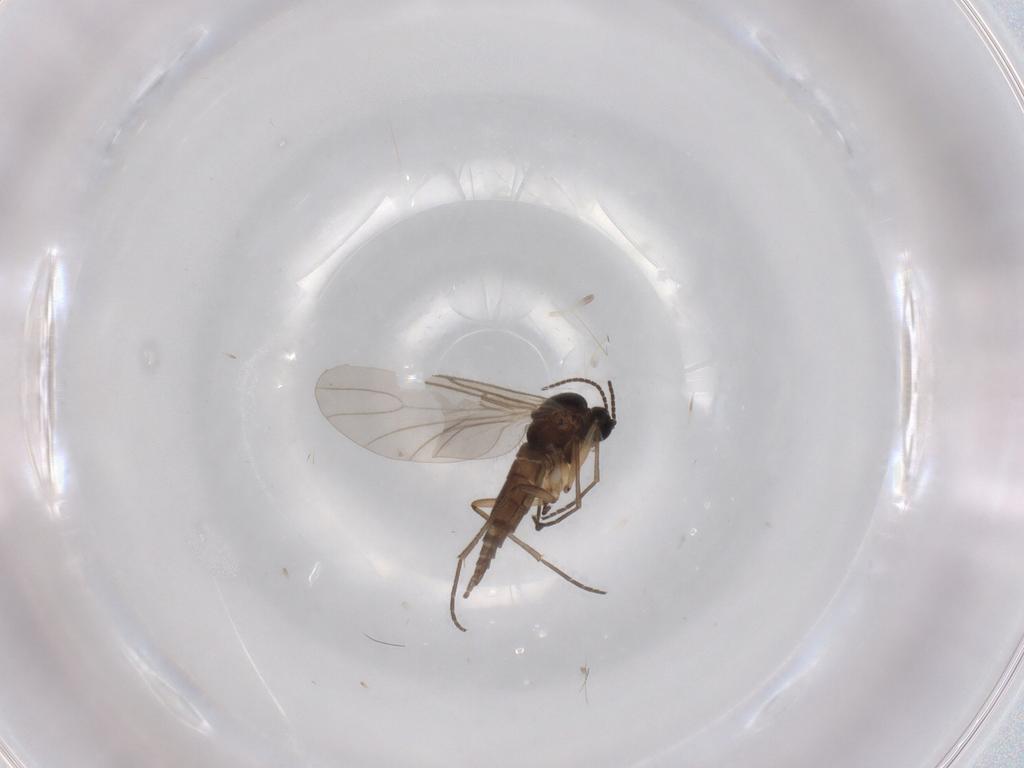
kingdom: Animalia
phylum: Arthropoda
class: Insecta
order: Diptera
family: Sciaridae
